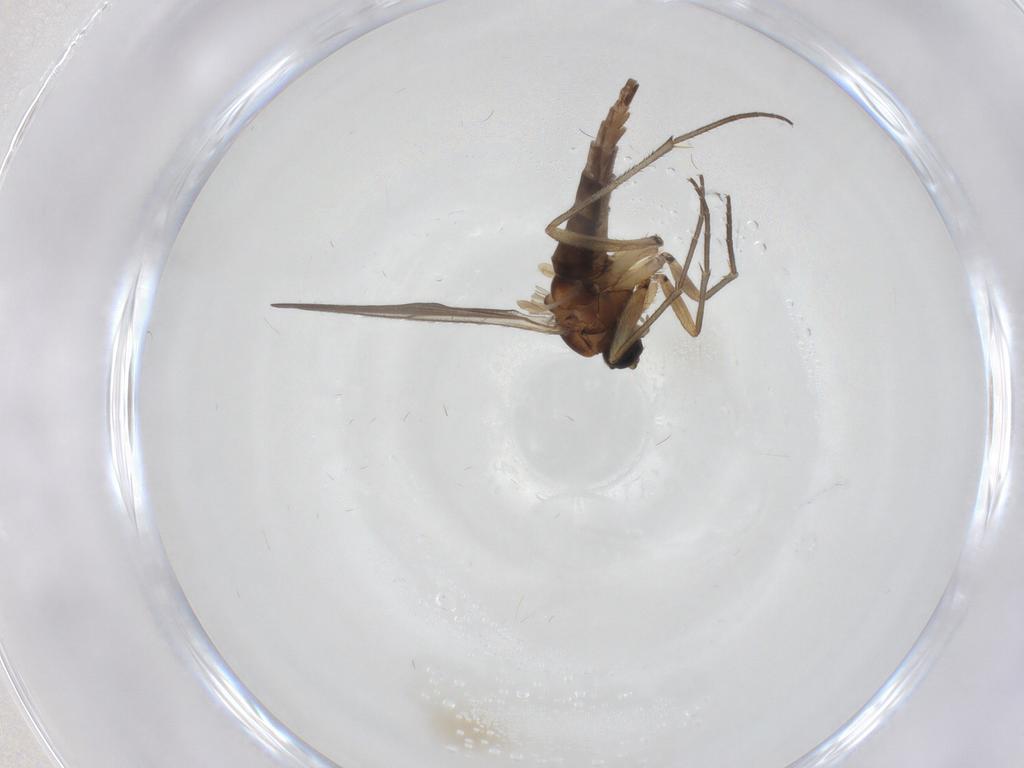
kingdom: Animalia
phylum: Arthropoda
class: Insecta
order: Diptera
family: Sciaridae
